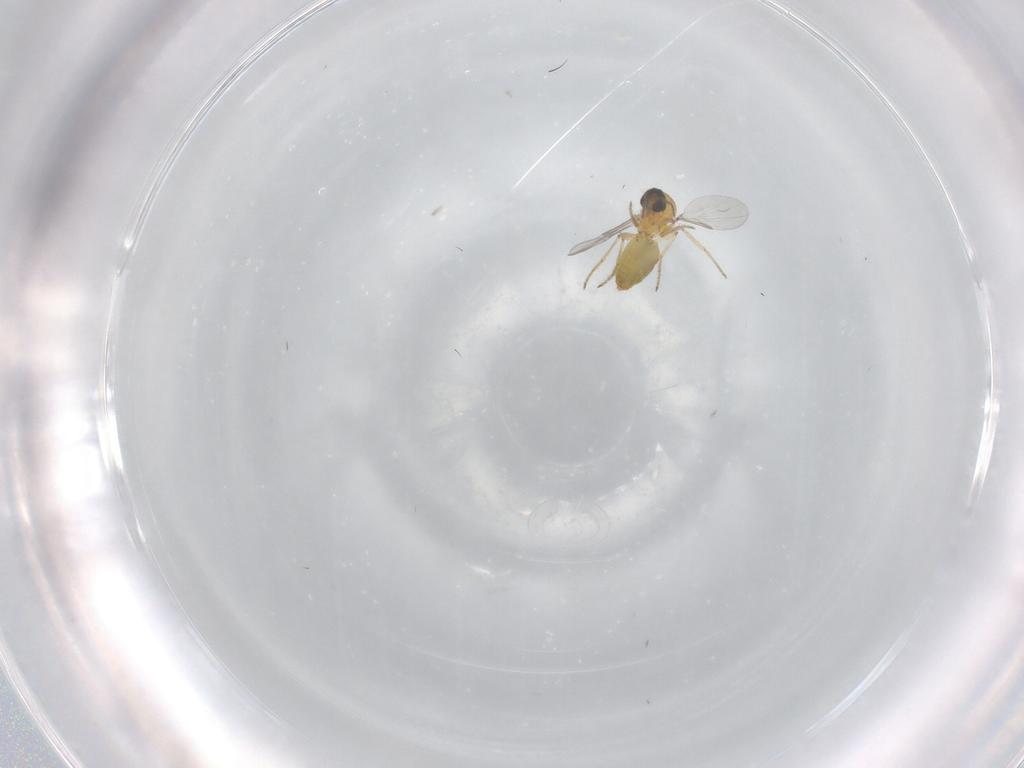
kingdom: Animalia
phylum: Arthropoda
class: Insecta
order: Diptera
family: Ceratopogonidae
